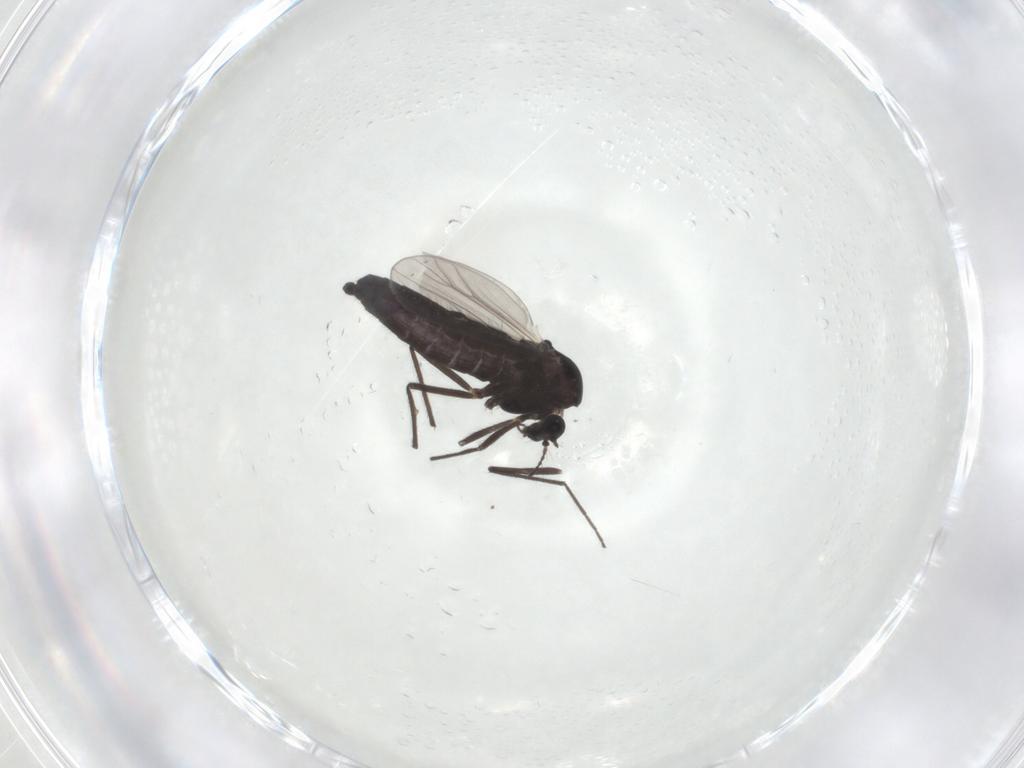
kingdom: Animalia
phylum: Arthropoda
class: Insecta
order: Diptera
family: Chironomidae
